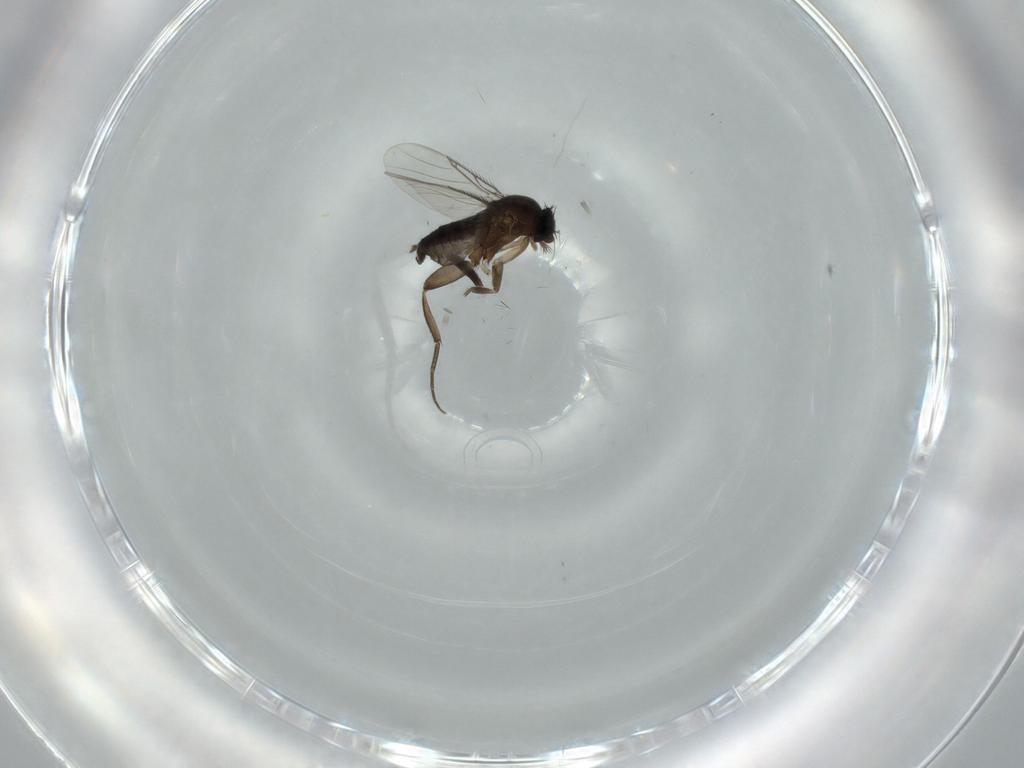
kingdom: Animalia
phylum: Arthropoda
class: Insecta
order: Diptera
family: Phoridae
